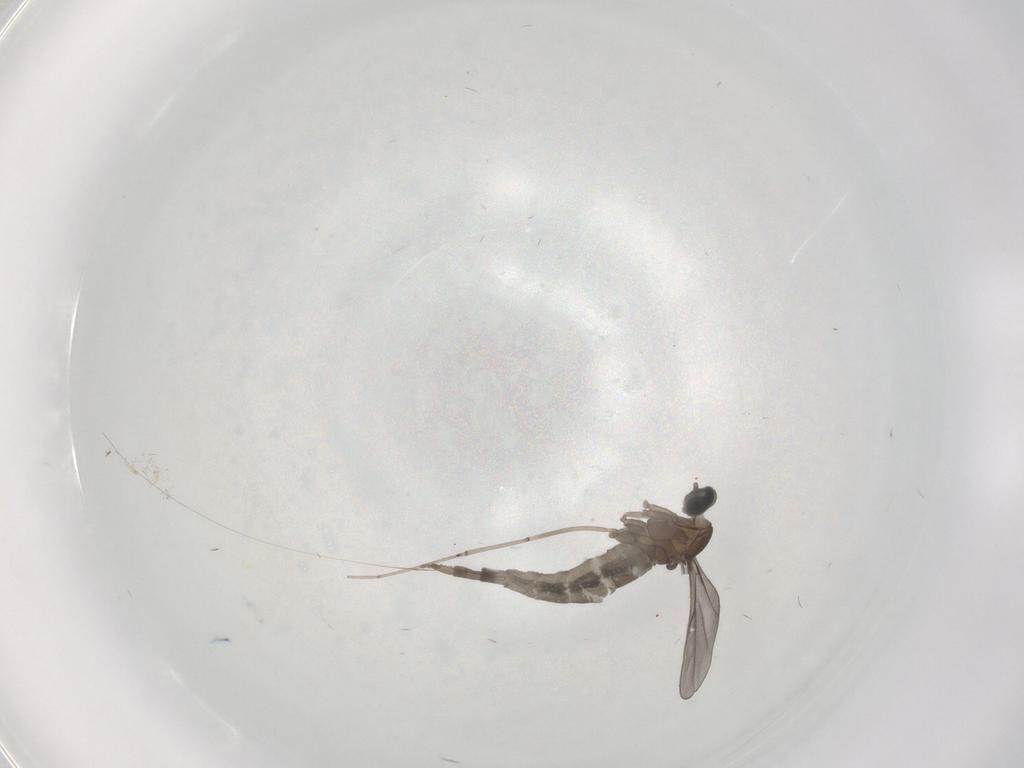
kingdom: Animalia
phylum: Arthropoda
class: Insecta
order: Diptera
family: Cecidomyiidae
